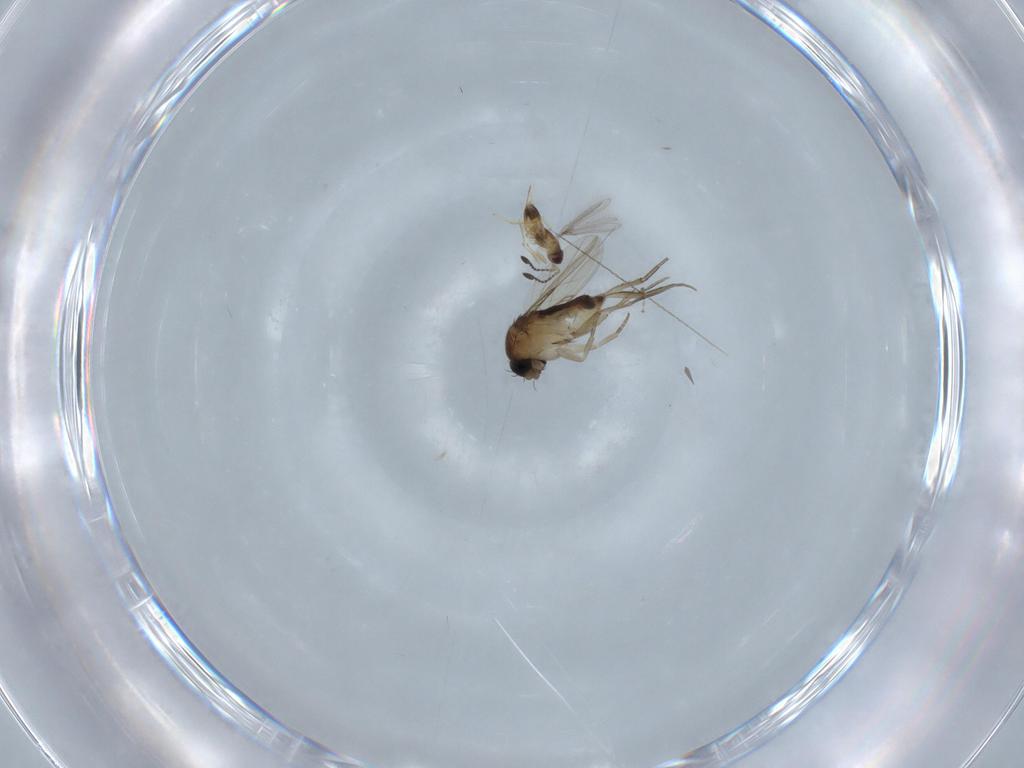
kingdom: Animalia
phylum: Arthropoda
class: Insecta
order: Diptera
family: Phoridae
